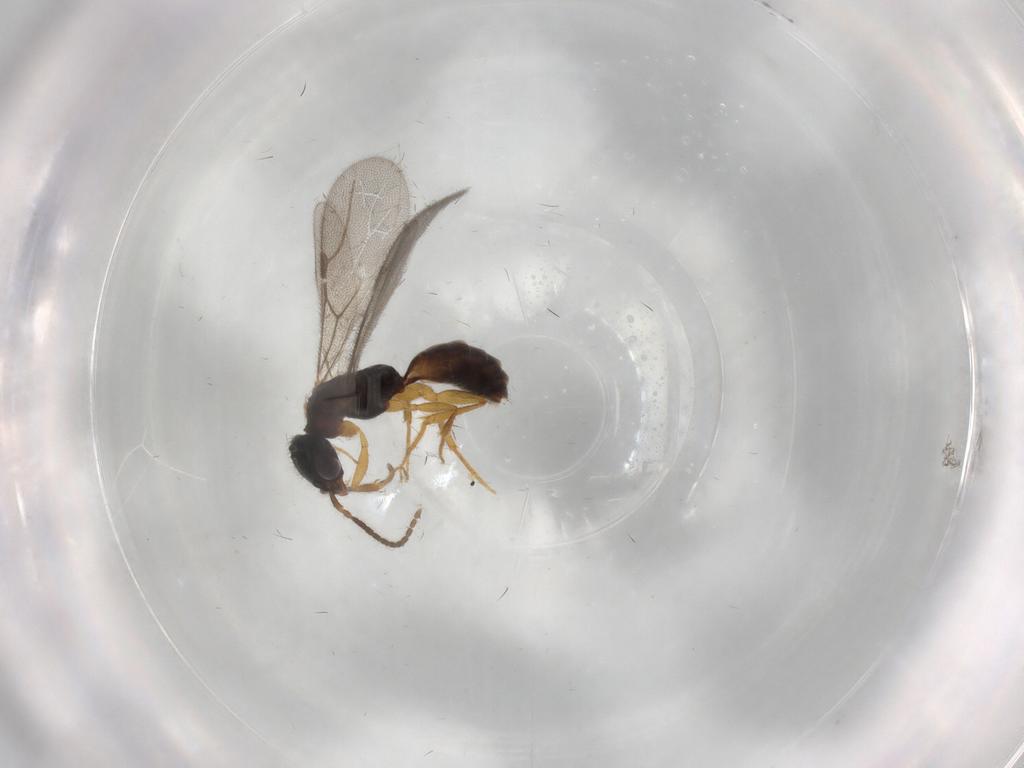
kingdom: Animalia
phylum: Arthropoda
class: Insecta
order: Hymenoptera
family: Bethylidae
